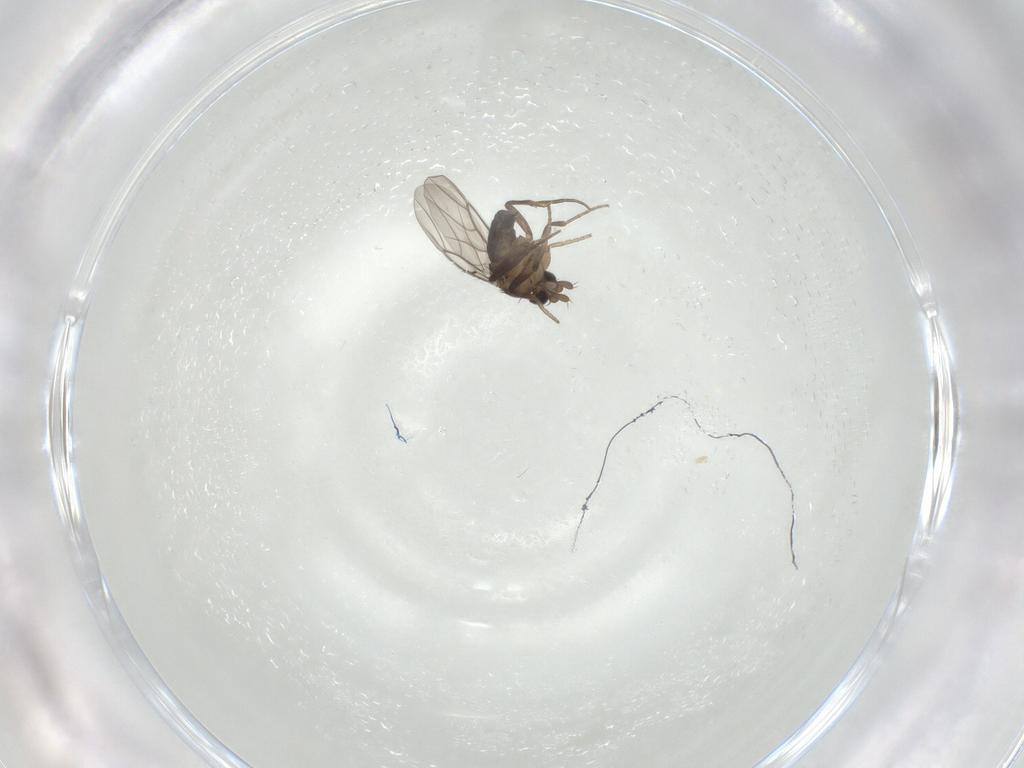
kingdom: Animalia
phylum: Arthropoda
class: Insecta
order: Diptera
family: Phoridae
